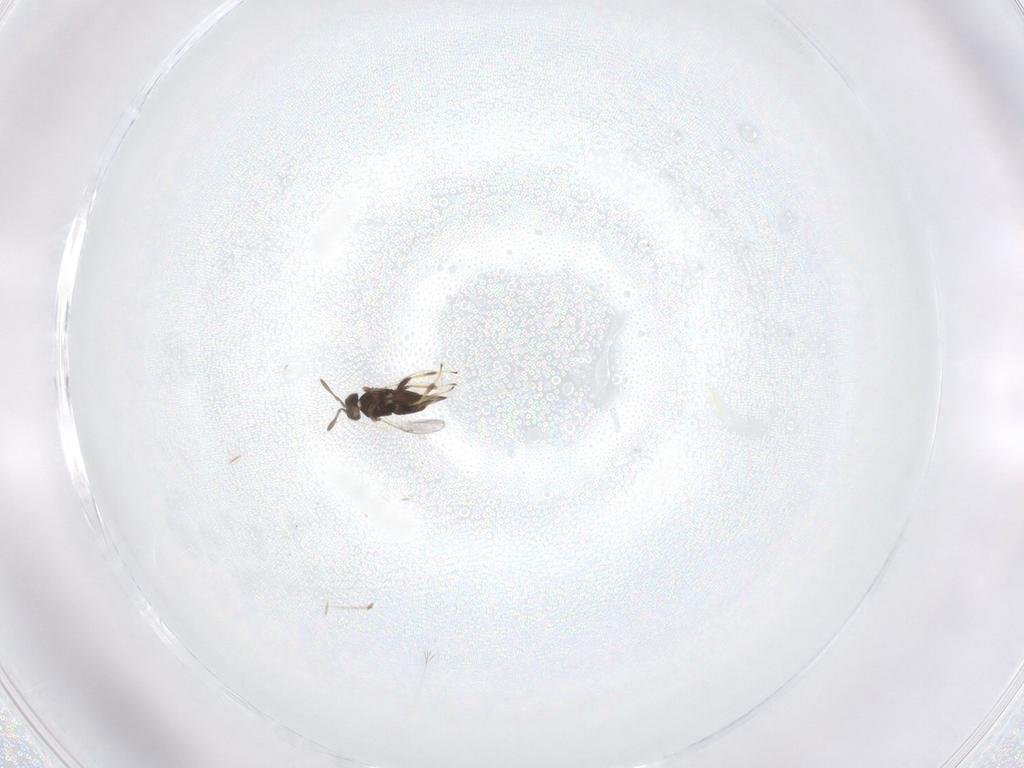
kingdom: Animalia
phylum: Arthropoda
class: Insecta
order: Hymenoptera
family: Encyrtidae
